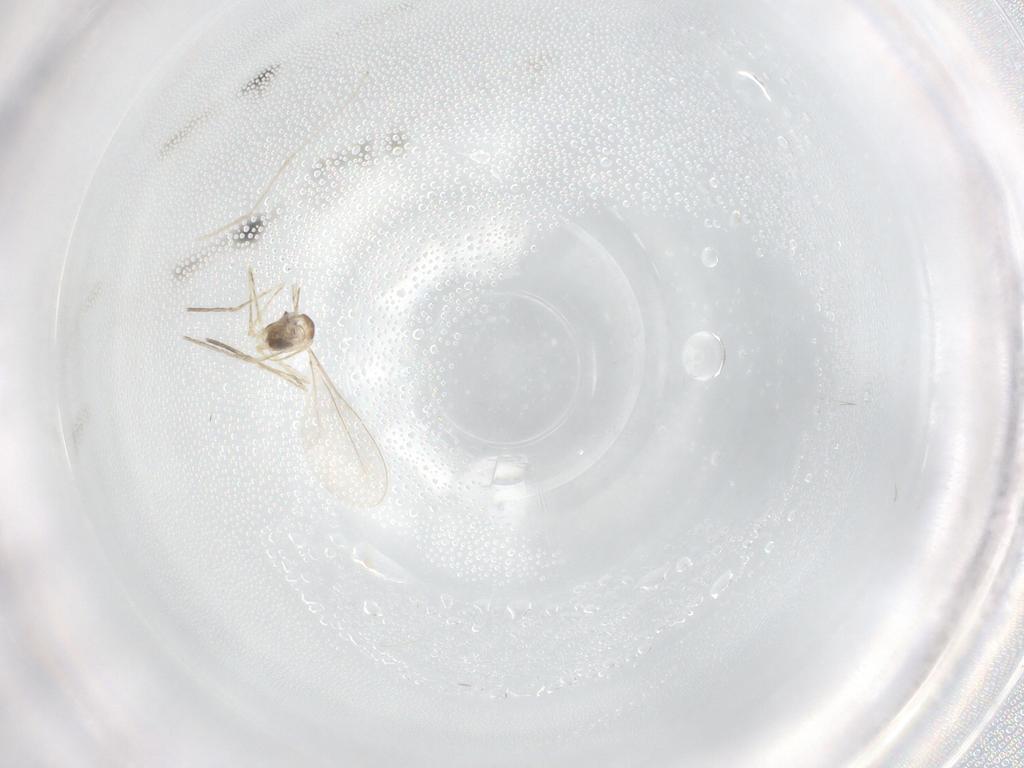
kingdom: Animalia
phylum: Arthropoda
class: Insecta
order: Diptera
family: Cecidomyiidae
